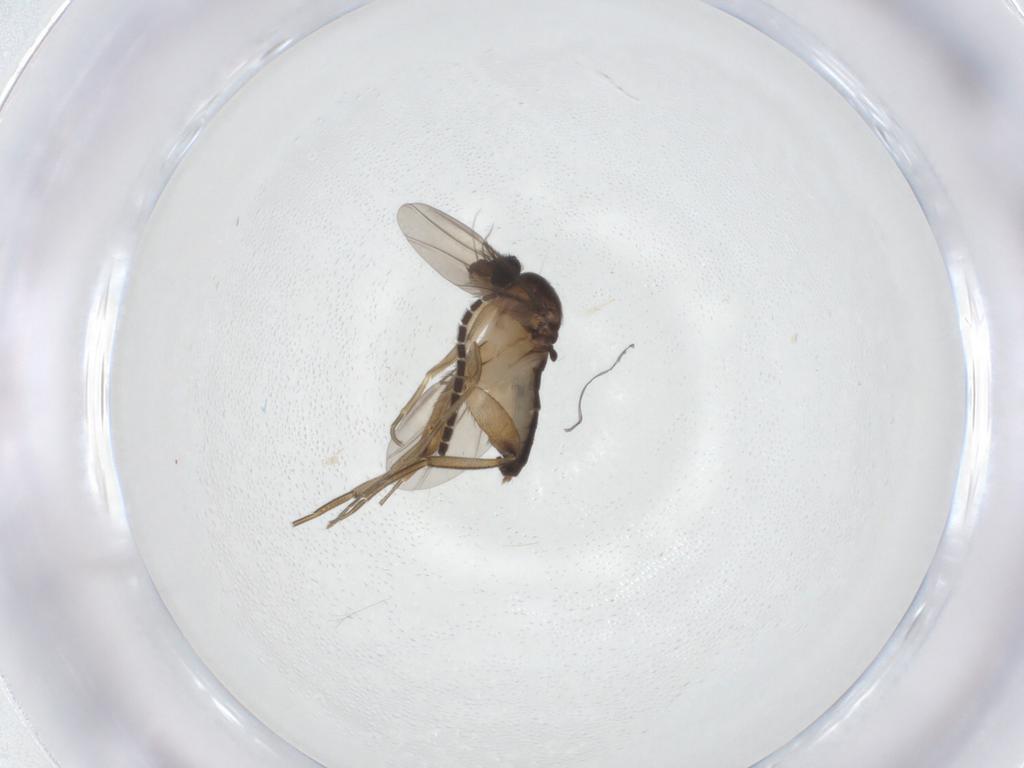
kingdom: Animalia
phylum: Arthropoda
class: Insecta
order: Diptera
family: Phoridae
